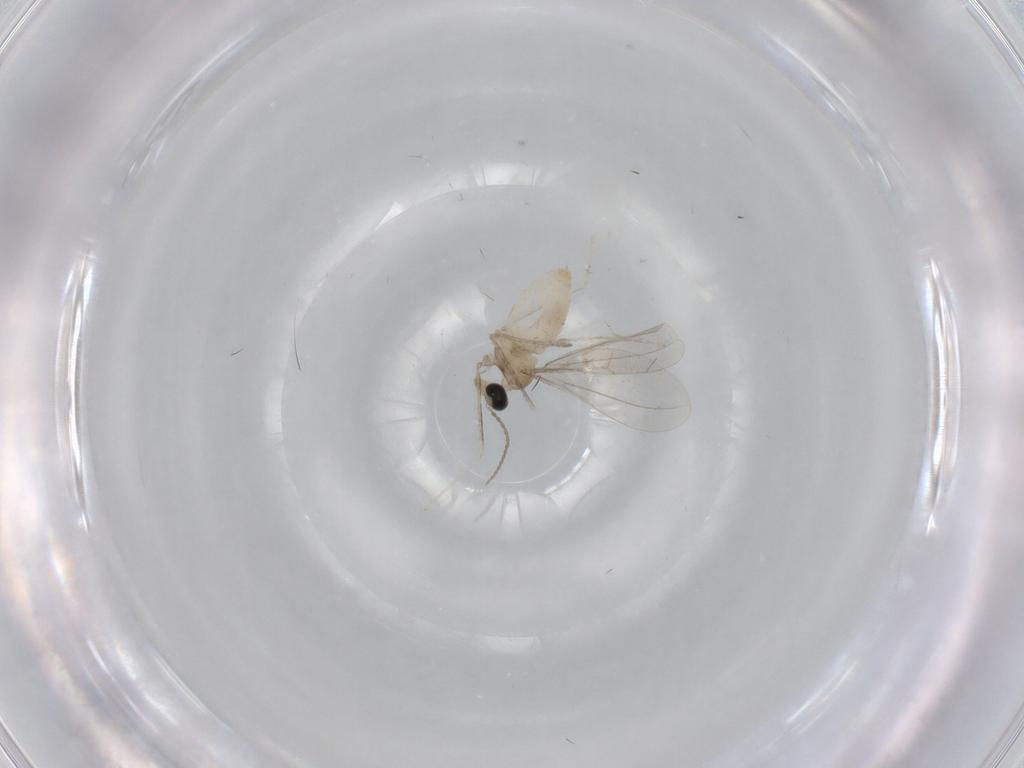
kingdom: Animalia
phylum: Arthropoda
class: Insecta
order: Diptera
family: Cecidomyiidae
